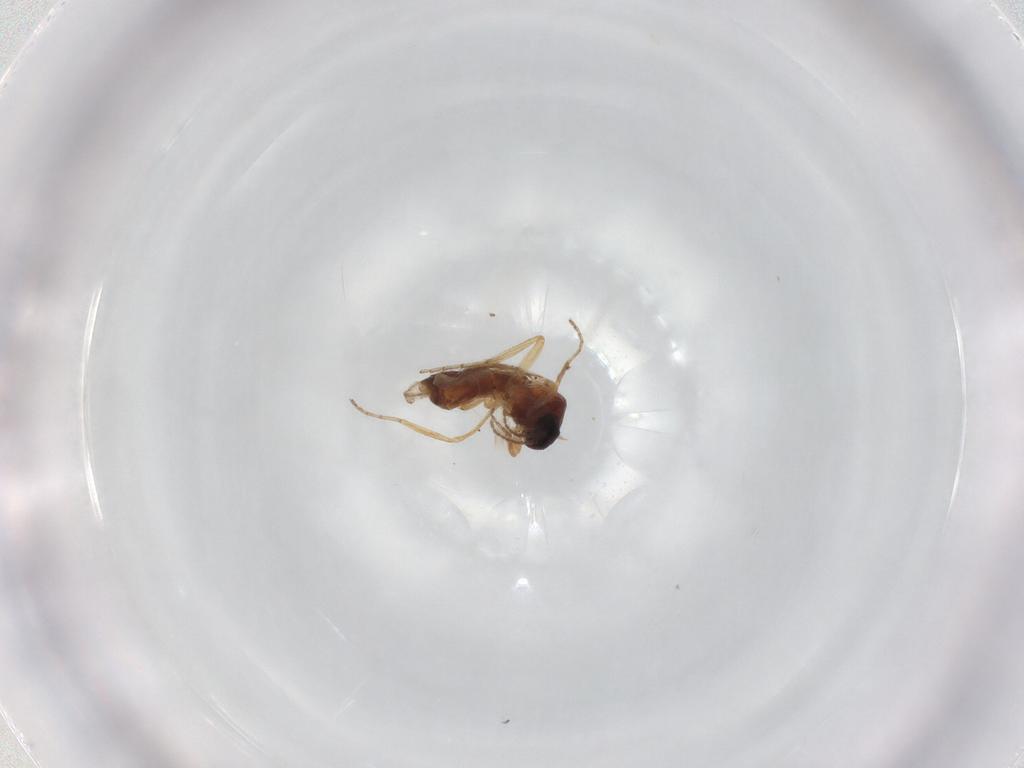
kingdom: Animalia
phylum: Arthropoda
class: Insecta
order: Diptera
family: Ceratopogonidae
